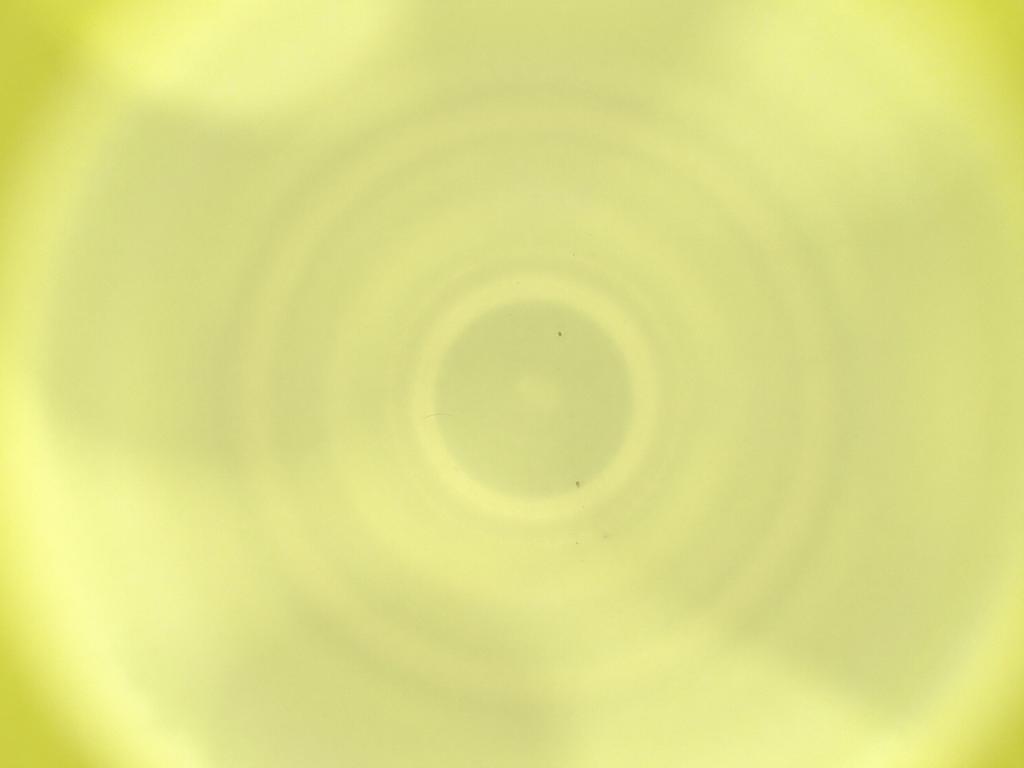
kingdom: Animalia
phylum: Arthropoda
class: Insecta
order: Diptera
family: Cecidomyiidae
